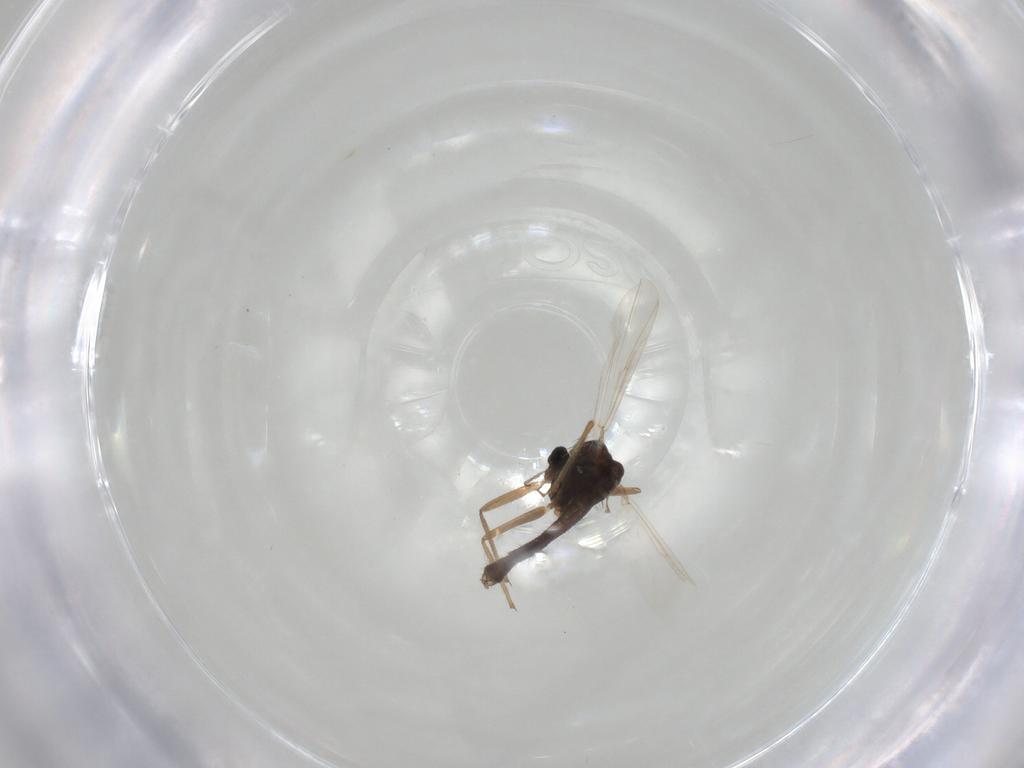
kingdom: Animalia
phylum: Arthropoda
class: Insecta
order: Diptera
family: Chironomidae
